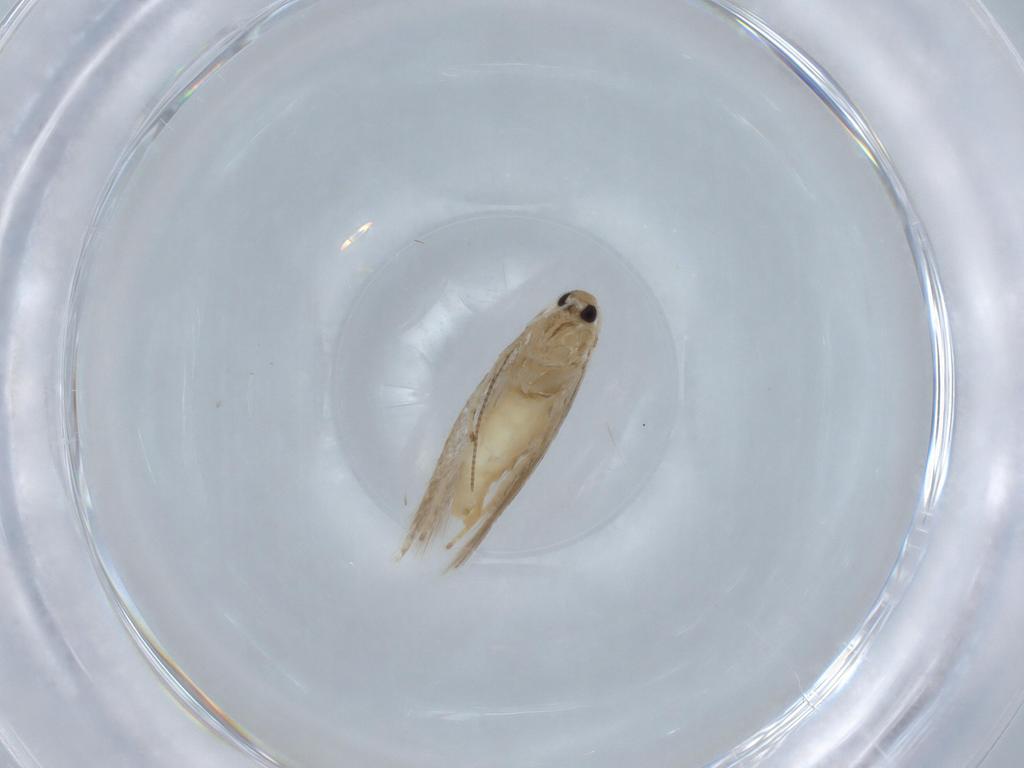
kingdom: Animalia
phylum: Arthropoda
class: Insecta
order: Lepidoptera
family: Gracillariidae
